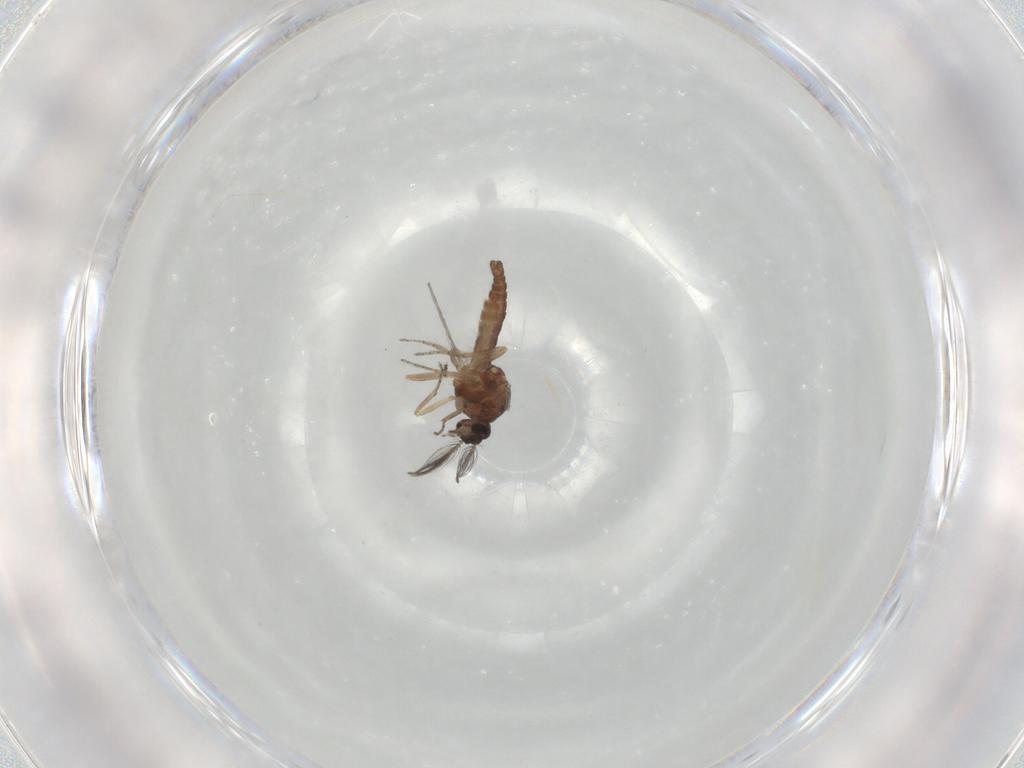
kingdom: Animalia
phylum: Arthropoda
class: Insecta
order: Diptera
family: Ceratopogonidae
